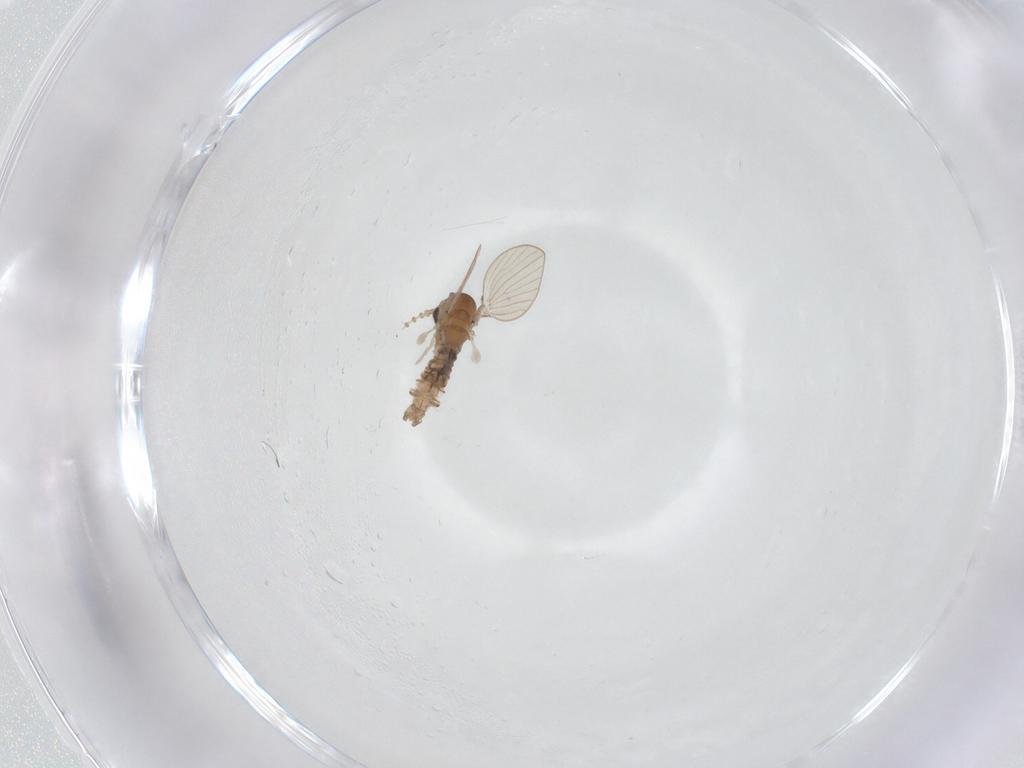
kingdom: Animalia
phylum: Arthropoda
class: Insecta
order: Diptera
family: Psychodidae
